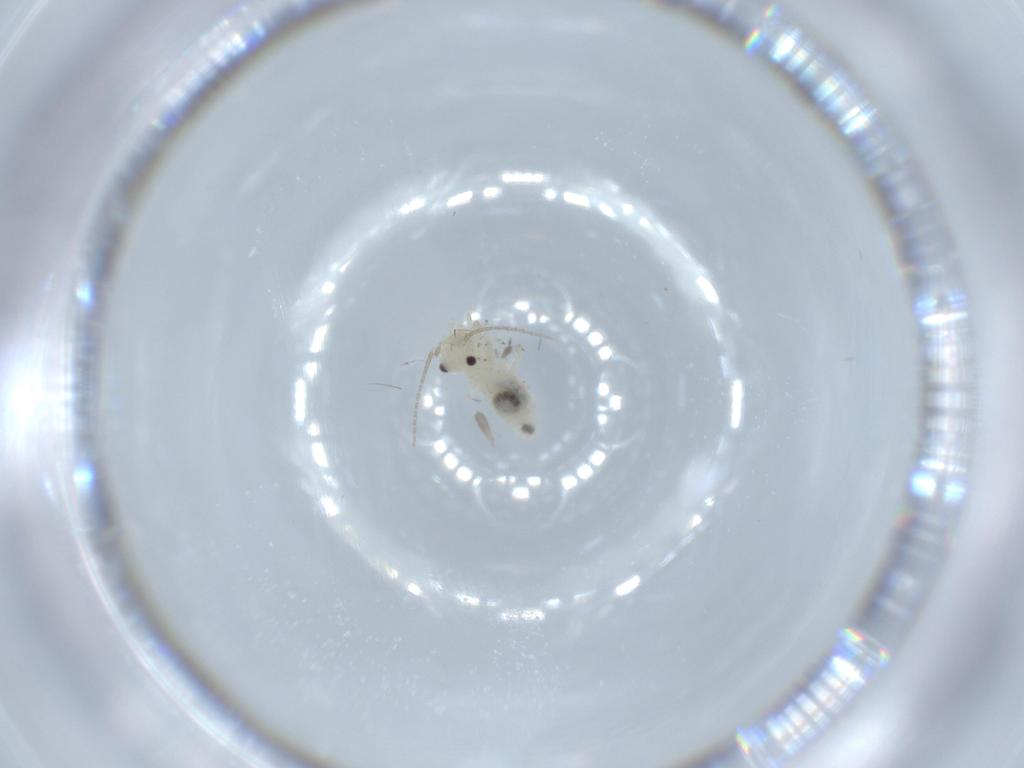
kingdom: Animalia
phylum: Arthropoda
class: Insecta
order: Psocodea
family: Caeciliusidae
